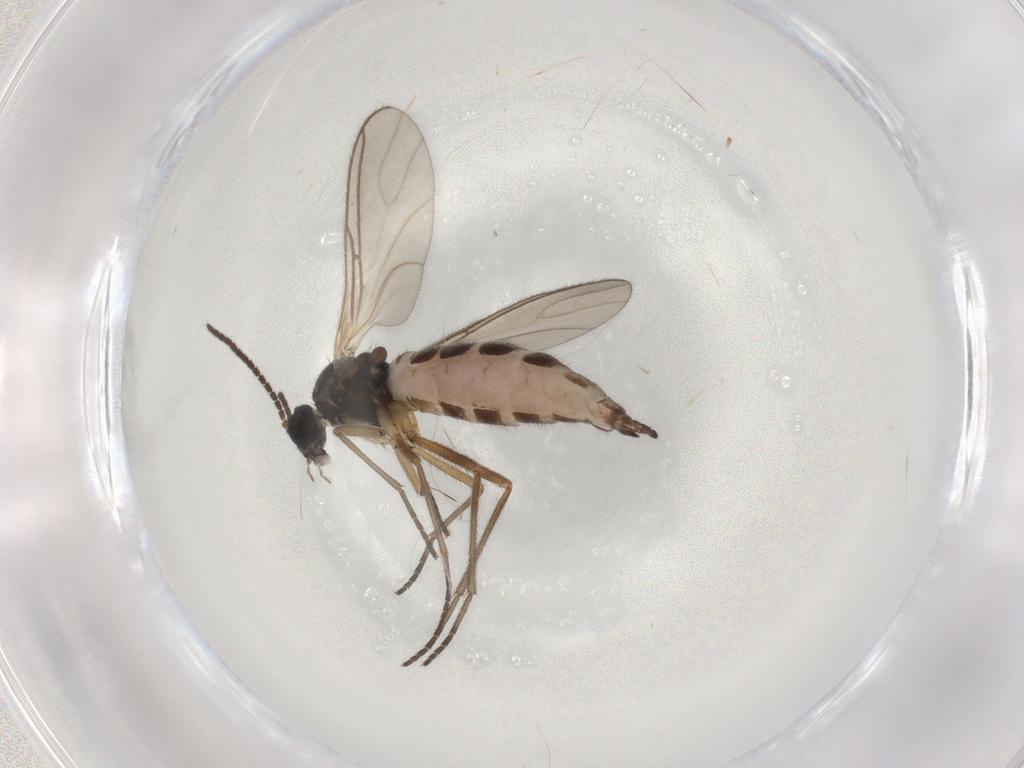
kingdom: Animalia
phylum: Arthropoda
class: Insecta
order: Diptera
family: Sciaridae
